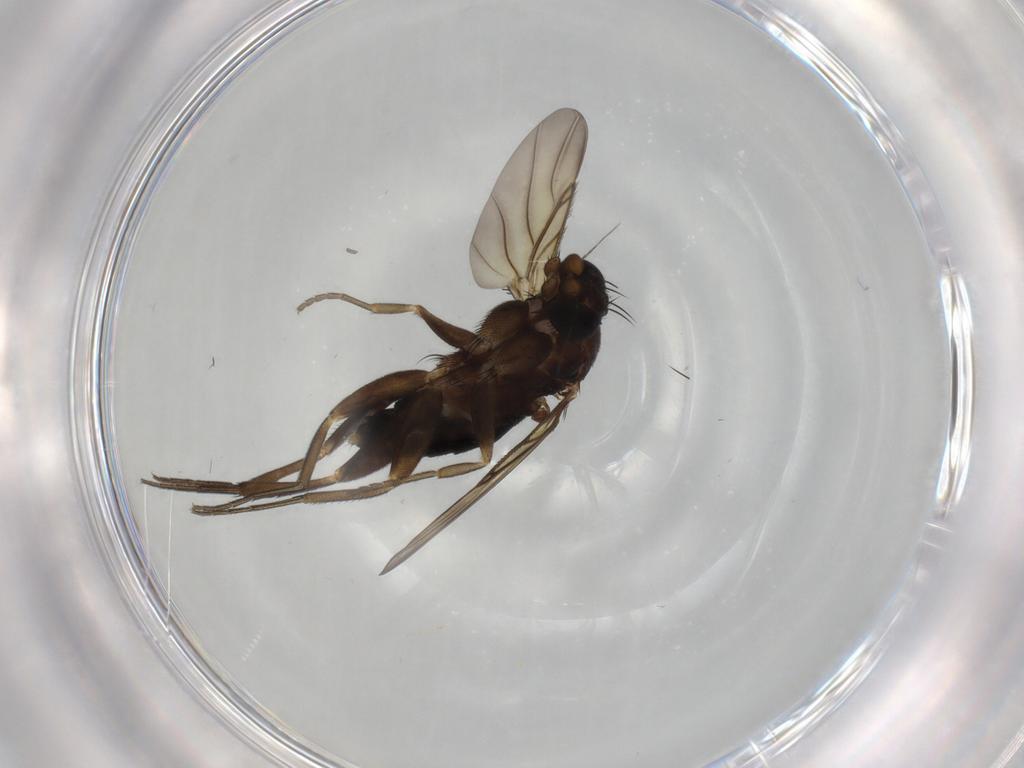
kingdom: Animalia
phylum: Arthropoda
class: Insecta
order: Diptera
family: Phoridae
